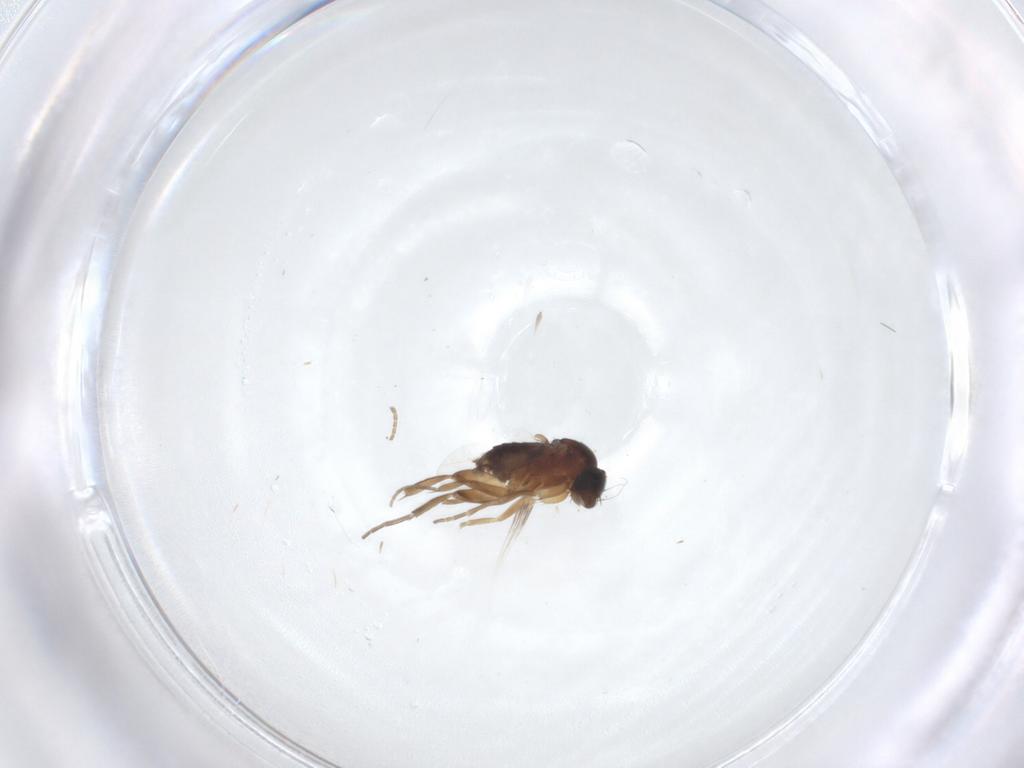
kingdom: Animalia
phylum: Arthropoda
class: Insecta
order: Diptera
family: Phoridae
